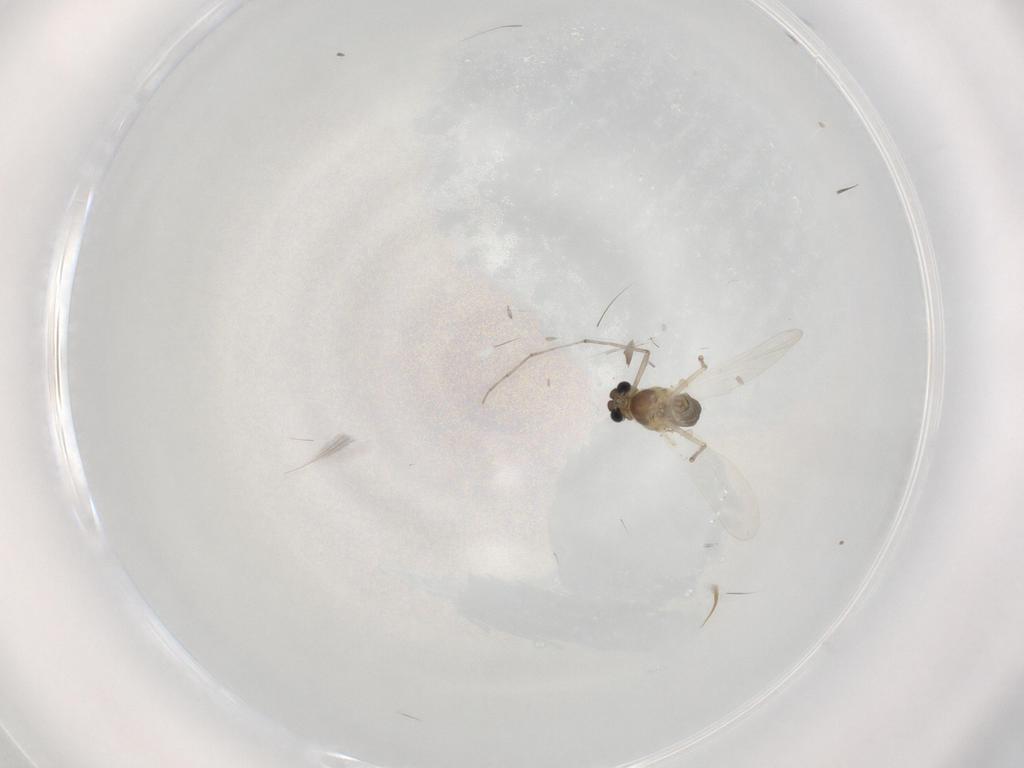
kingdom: Animalia
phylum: Arthropoda
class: Insecta
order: Diptera
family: Chironomidae
